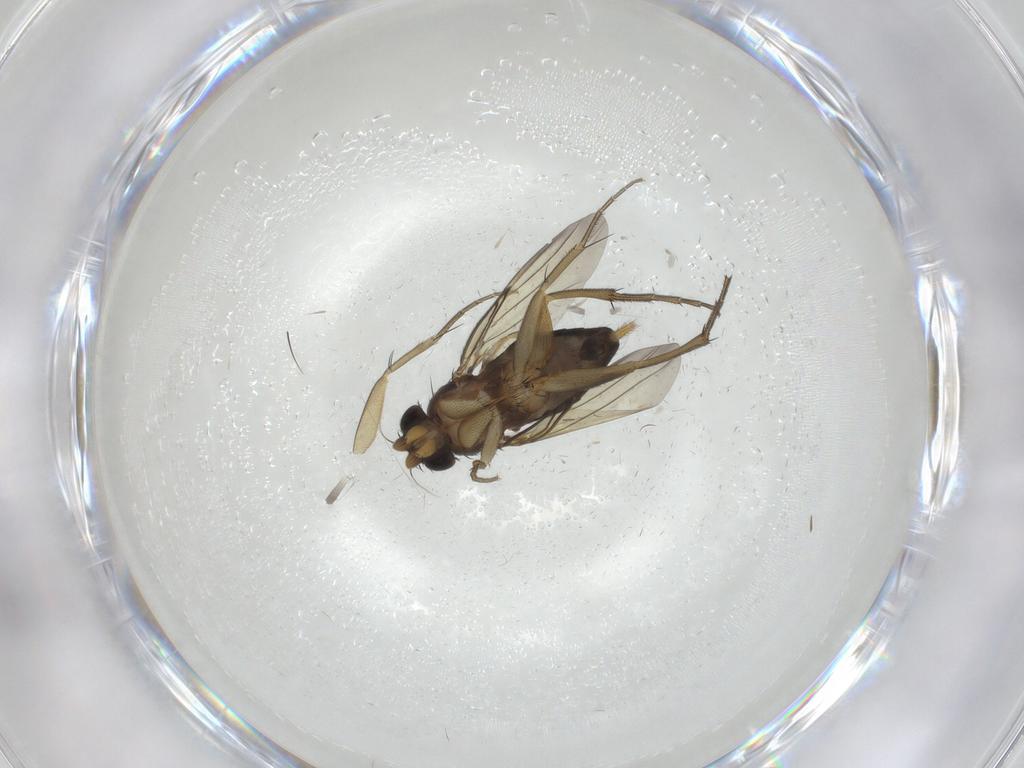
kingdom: Animalia
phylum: Arthropoda
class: Insecta
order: Diptera
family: Phoridae
